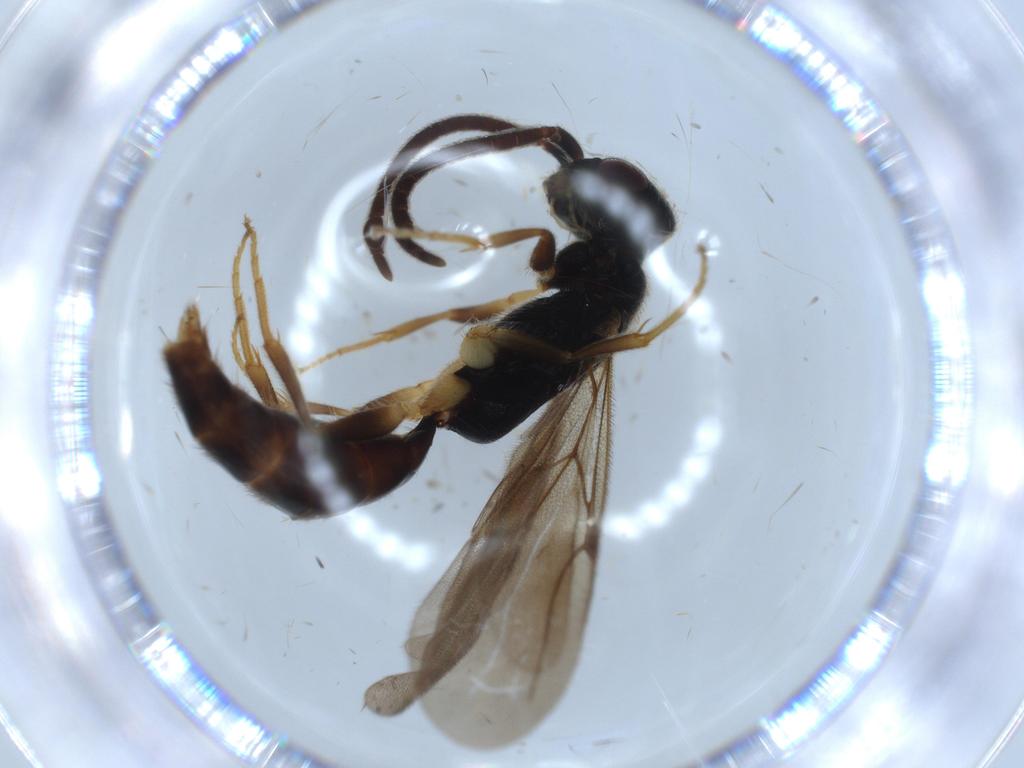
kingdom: Animalia
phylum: Arthropoda
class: Insecta
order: Hymenoptera
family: Bethylidae
